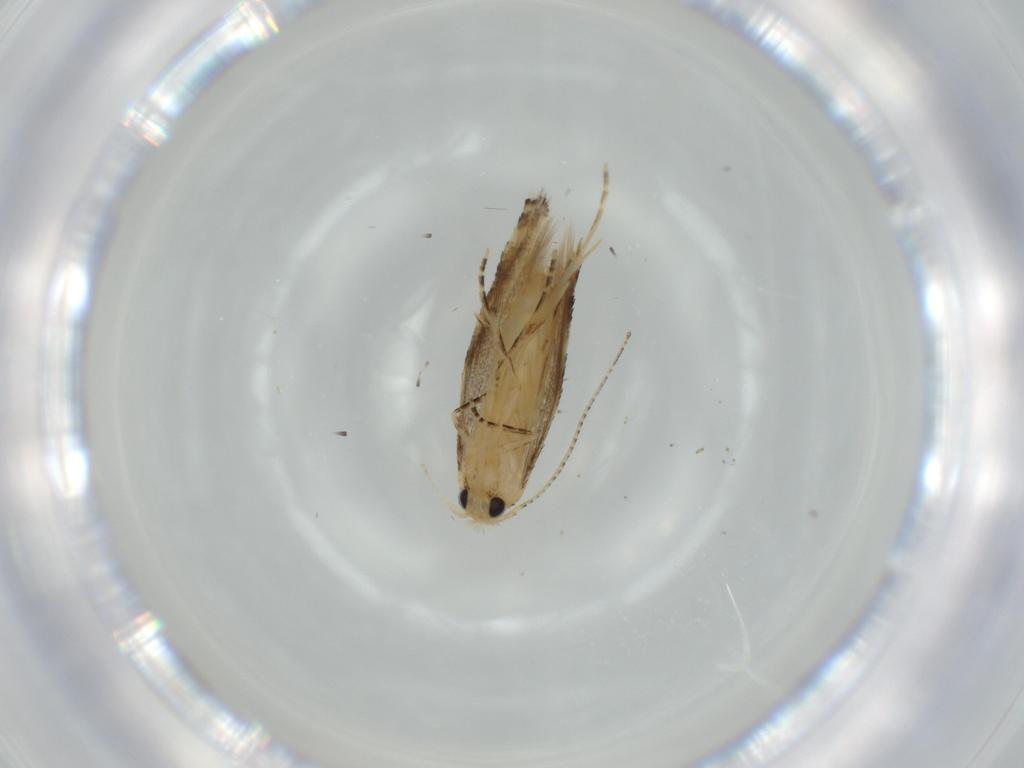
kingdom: Animalia
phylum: Arthropoda
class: Insecta
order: Lepidoptera
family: Bucculatricidae
